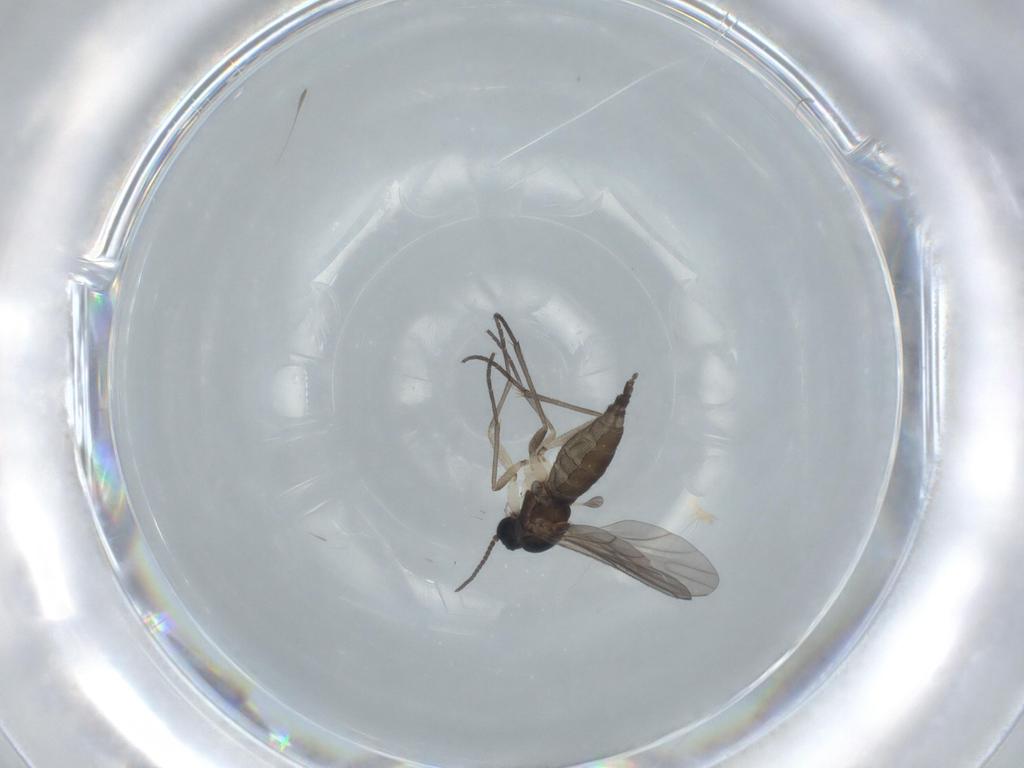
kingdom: Animalia
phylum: Arthropoda
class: Insecta
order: Diptera
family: Sciaridae
